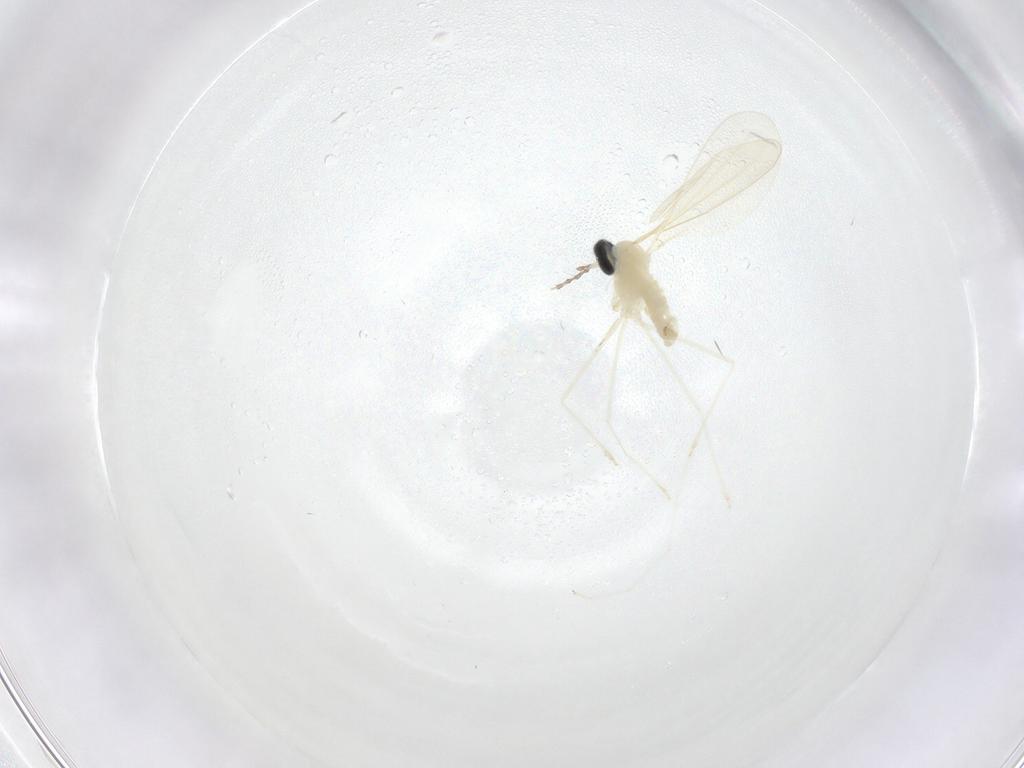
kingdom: Animalia
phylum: Arthropoda
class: Insecta
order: Diptera
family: Cecidomyiidae
